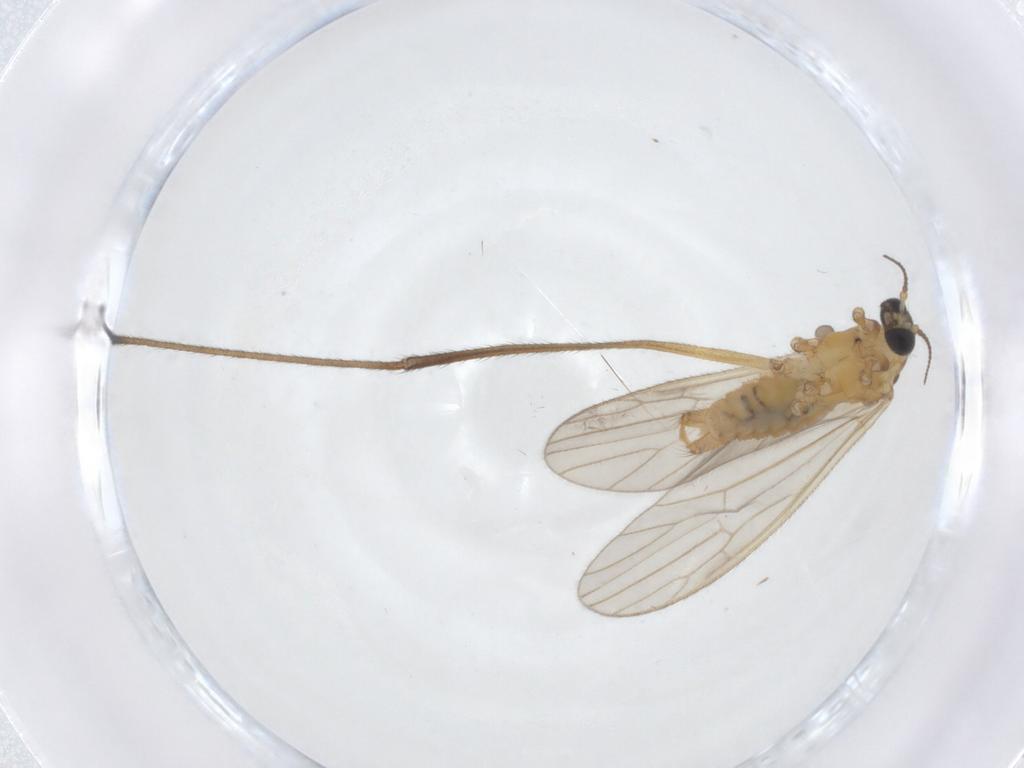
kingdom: Animalia
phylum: Arthropoda
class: Insecta
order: Diptera
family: Limoniidae
